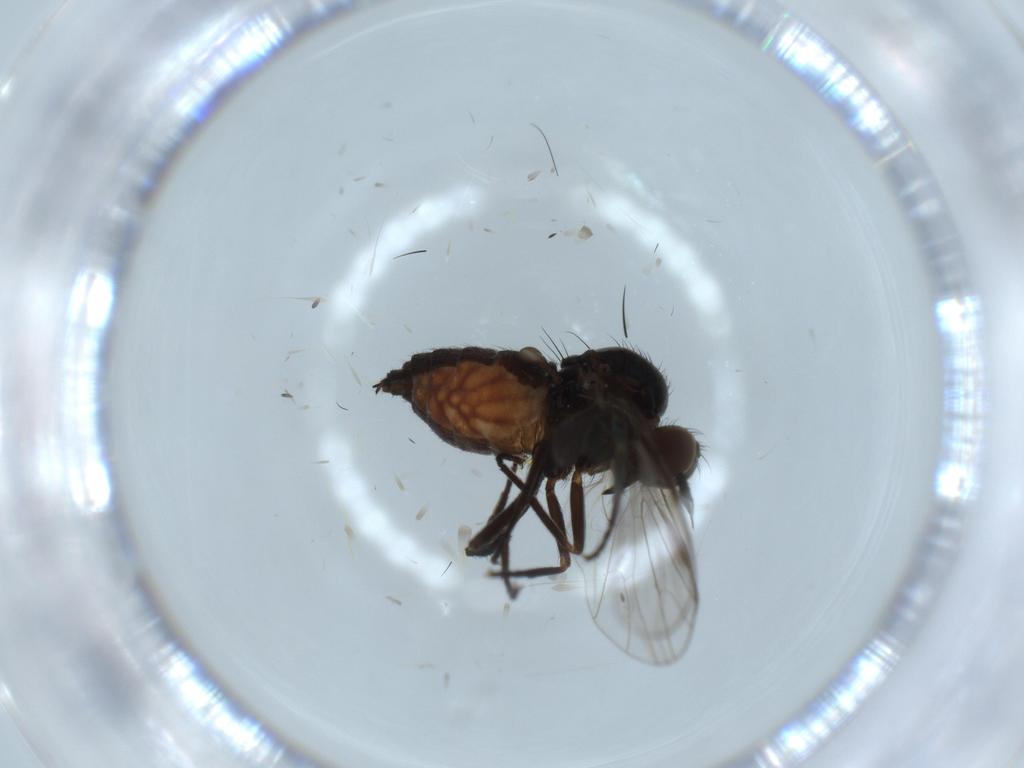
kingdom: Animalia
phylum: Arthropoda
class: Insecta
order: Diptera
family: Empididae
